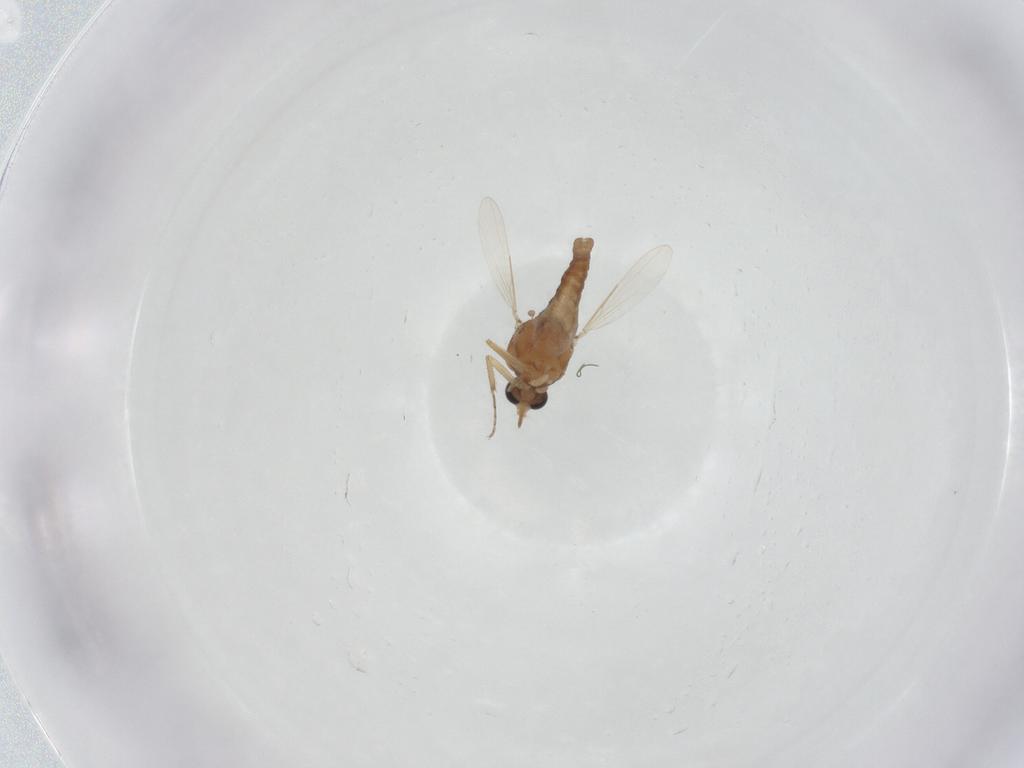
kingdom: Animalia
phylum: Arthropoda
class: Insecta
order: Diptera
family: Ceratopogonidae
